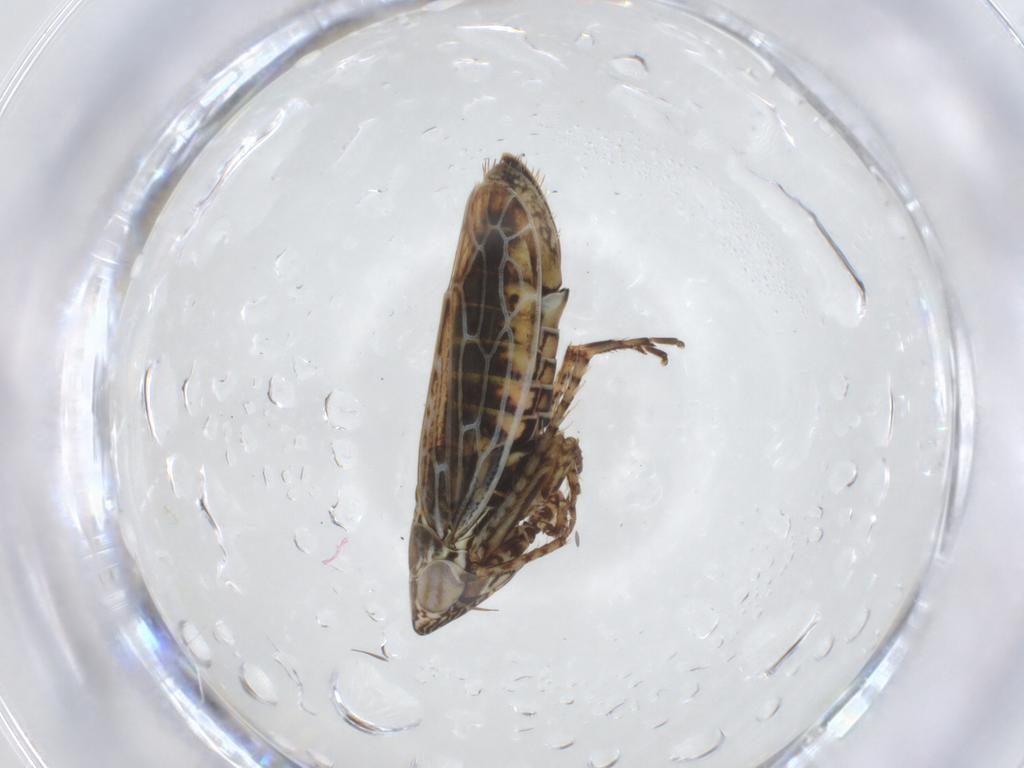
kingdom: Animalia
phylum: Arthropoda
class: Insecta
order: Hemiptera
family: Cicadellidae
